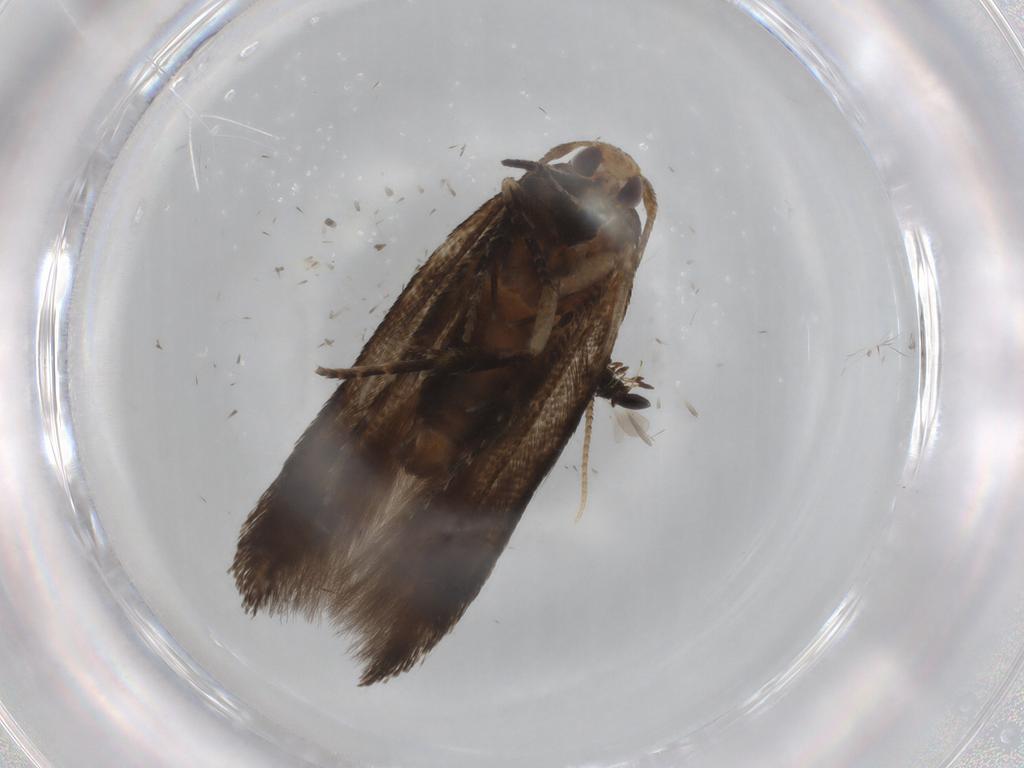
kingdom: Animalia
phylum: Arthropoda
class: Insecta
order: Lepidoptera
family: Cosmopterigidae
